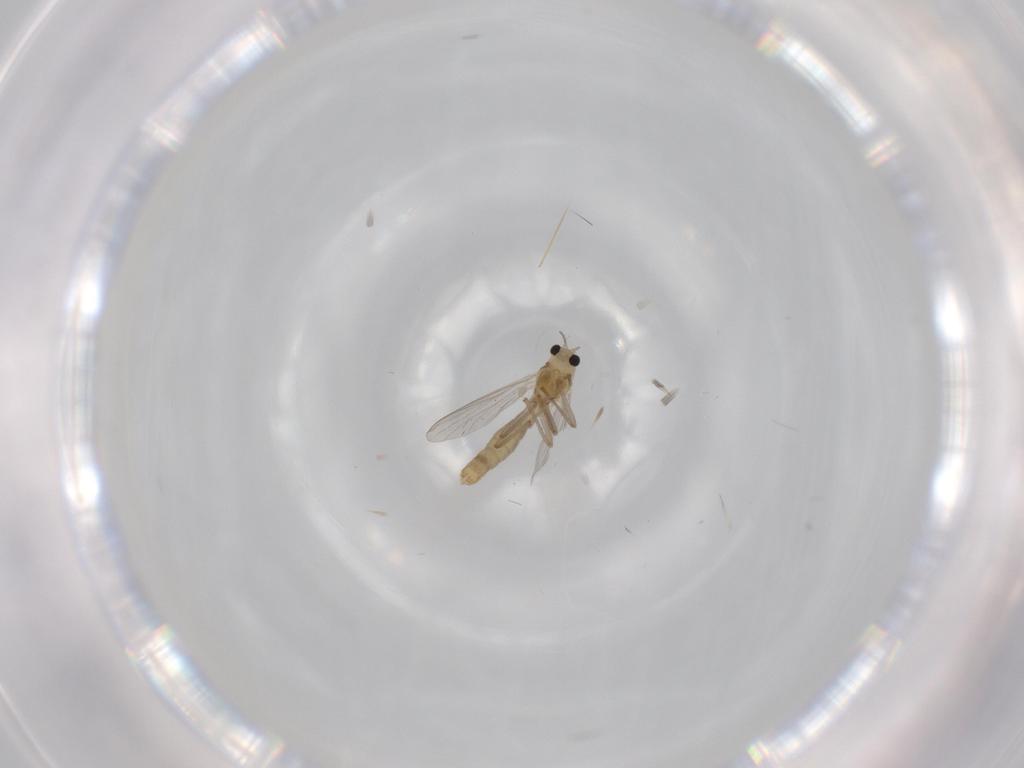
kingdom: Animalia
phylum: Arthropoda
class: Insecta
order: Diptera
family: Chironomidae
